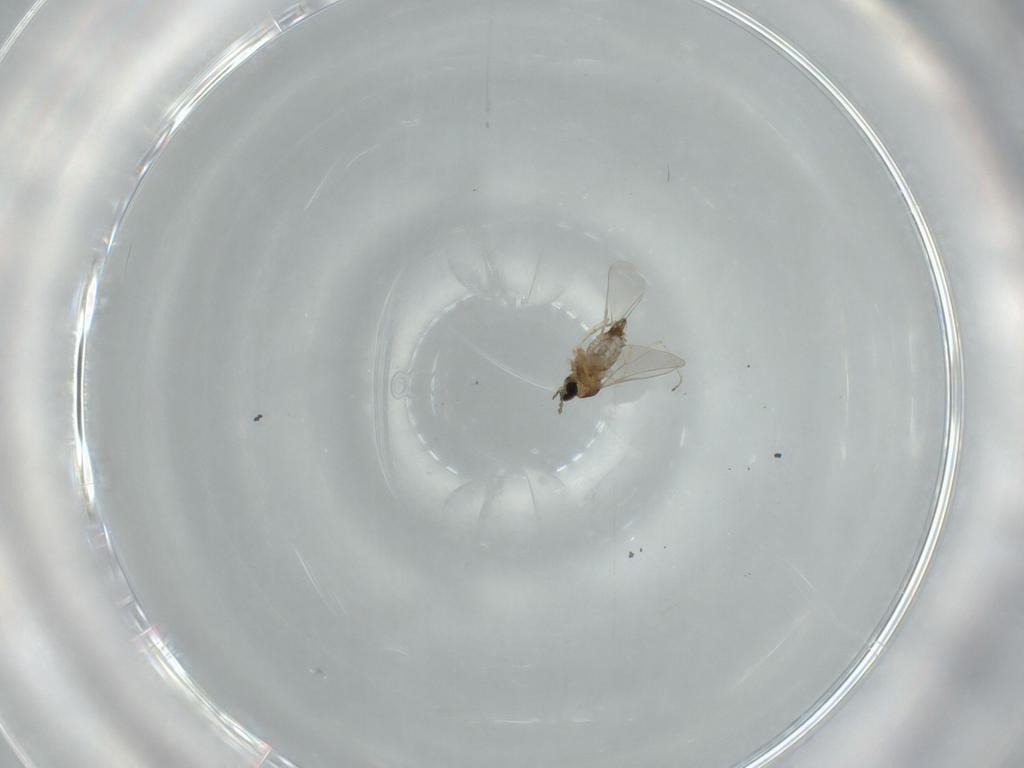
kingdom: Animalia
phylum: Arthropoda
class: Insecta
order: Diptera
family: Cecidomyiidae
